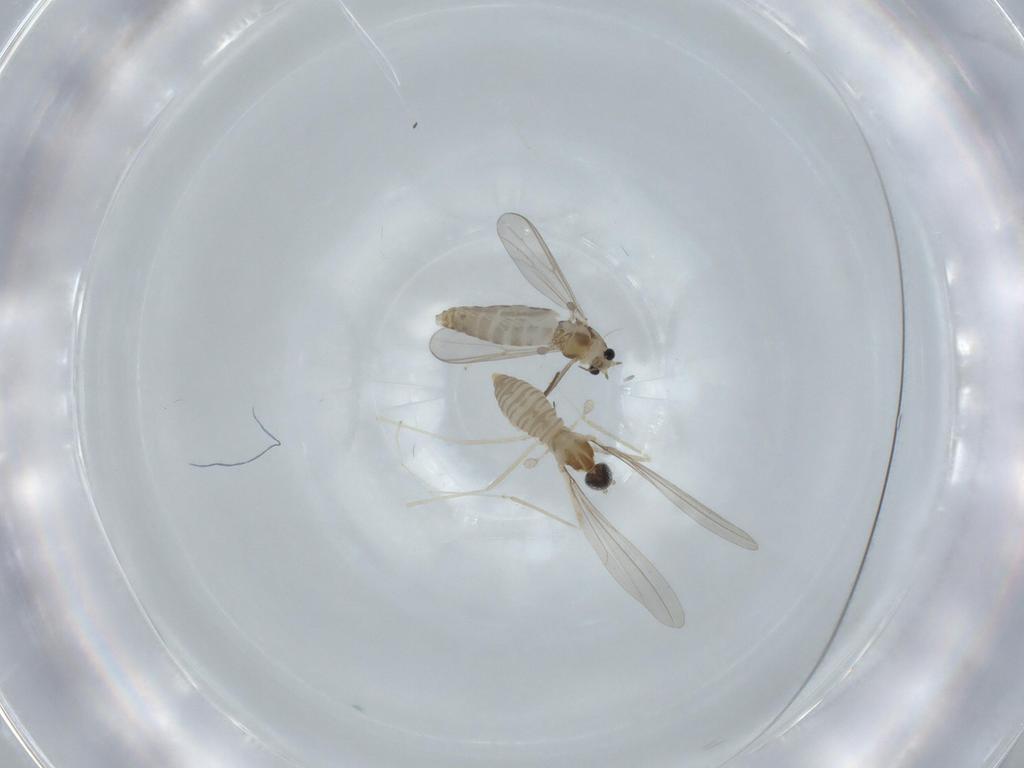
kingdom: Animalia
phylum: Arthropoda
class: Insecta
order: Diptera
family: Cecidomyiidae
